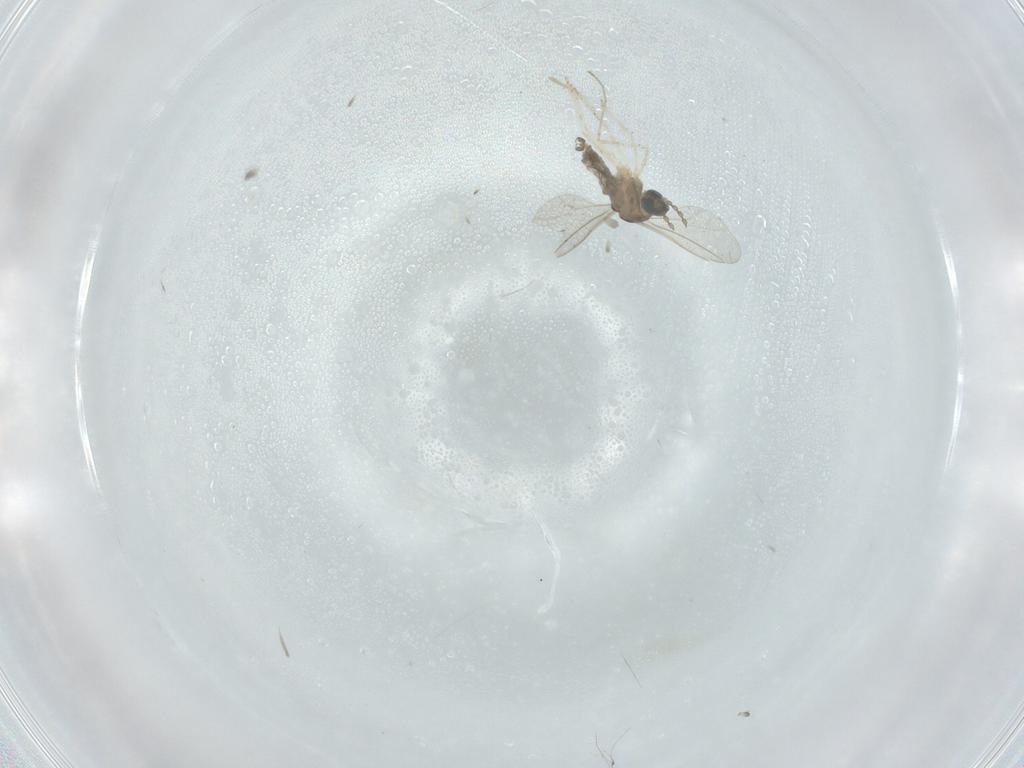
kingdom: Animalia
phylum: Arthropoda
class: Insecta
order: Diptera
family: Cecidomyiidae
